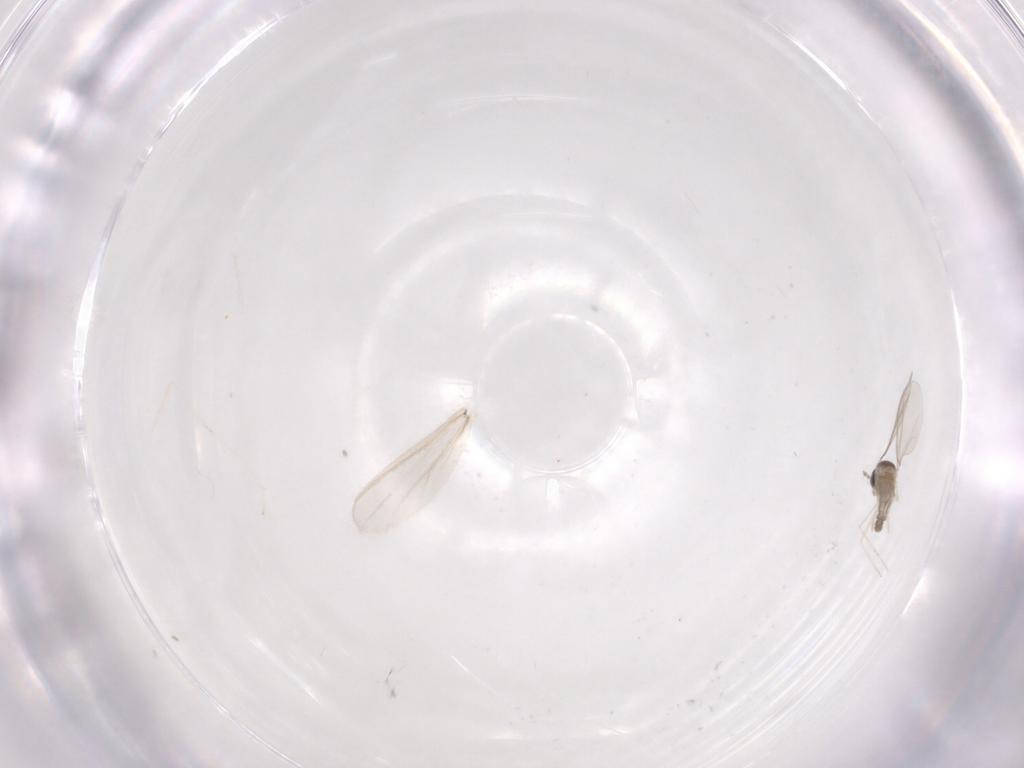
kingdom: Animalia
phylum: Arthropoda
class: Insecta
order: Diptera
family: Cecidomyiidae
